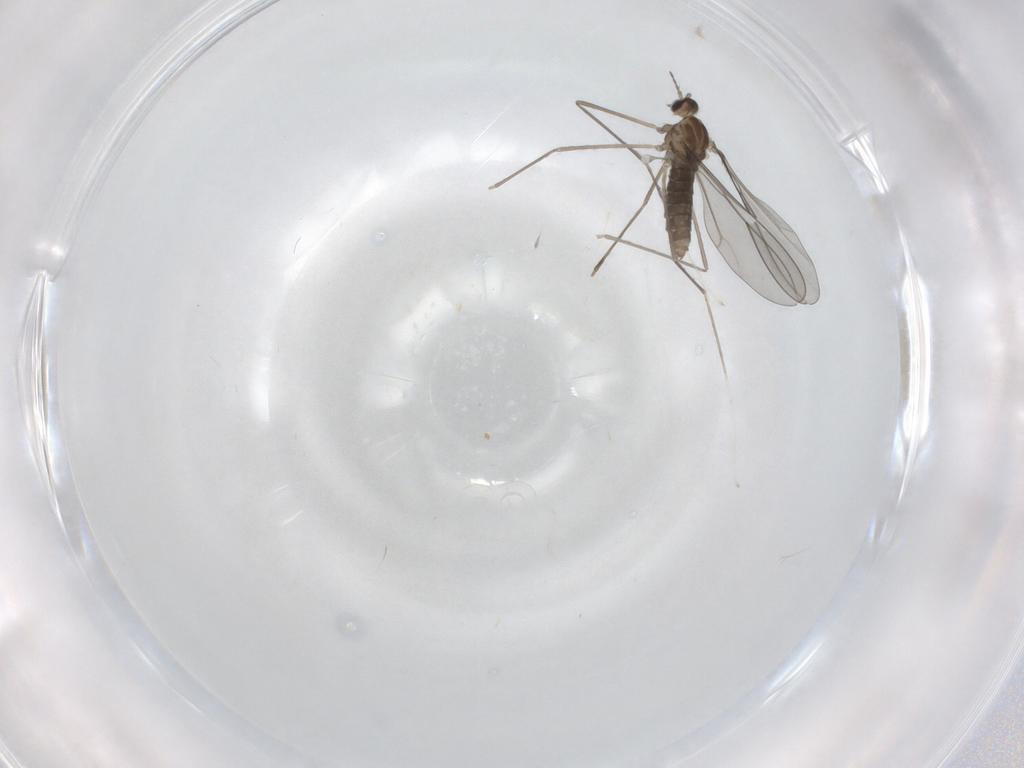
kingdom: Animalia
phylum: Arthropoda
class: Insecta
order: Diptera
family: Cecidomyiidae
